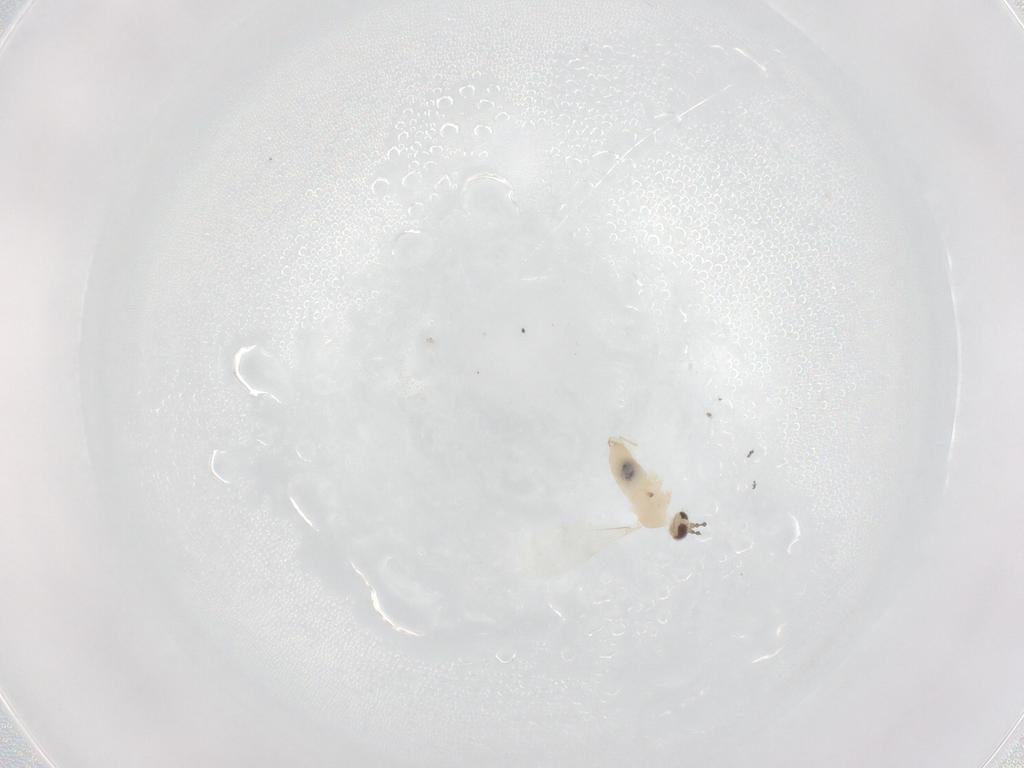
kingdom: Animalia
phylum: Arthropoda
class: Insecta
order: Diptera
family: Cecidomyiidae
